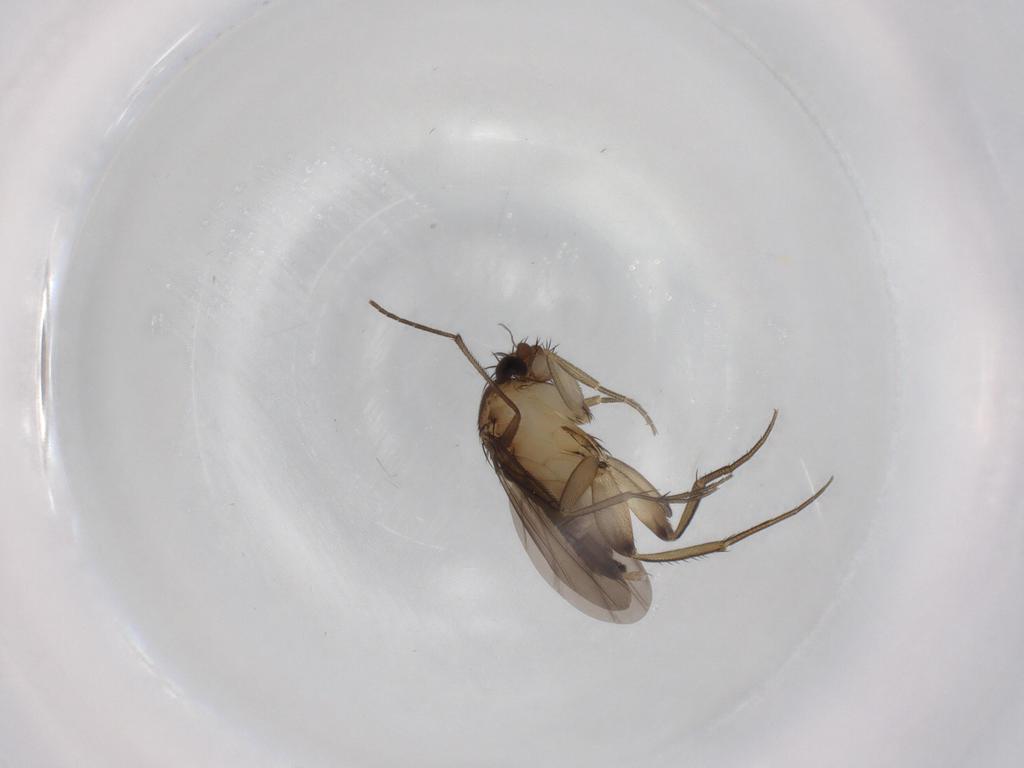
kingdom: Animalia
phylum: Arthropoda
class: Insecta
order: Diptera
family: Phoridae
